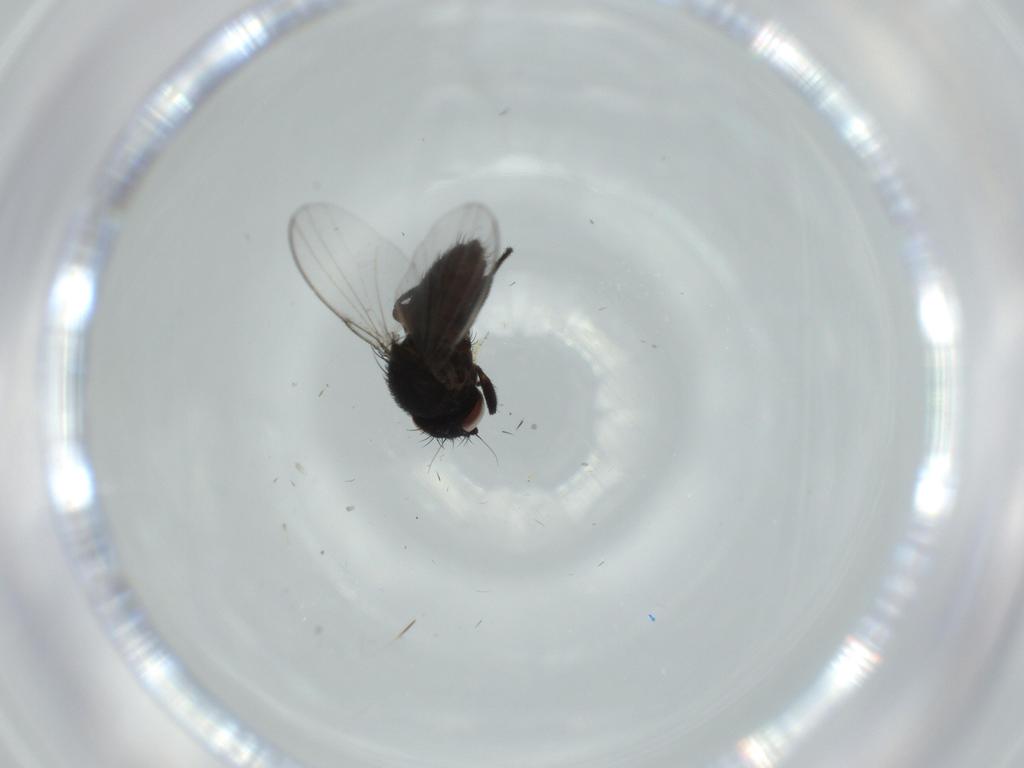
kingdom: Animalia
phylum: Arthropoda
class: Insecta
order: Diptera
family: Milichiidae
